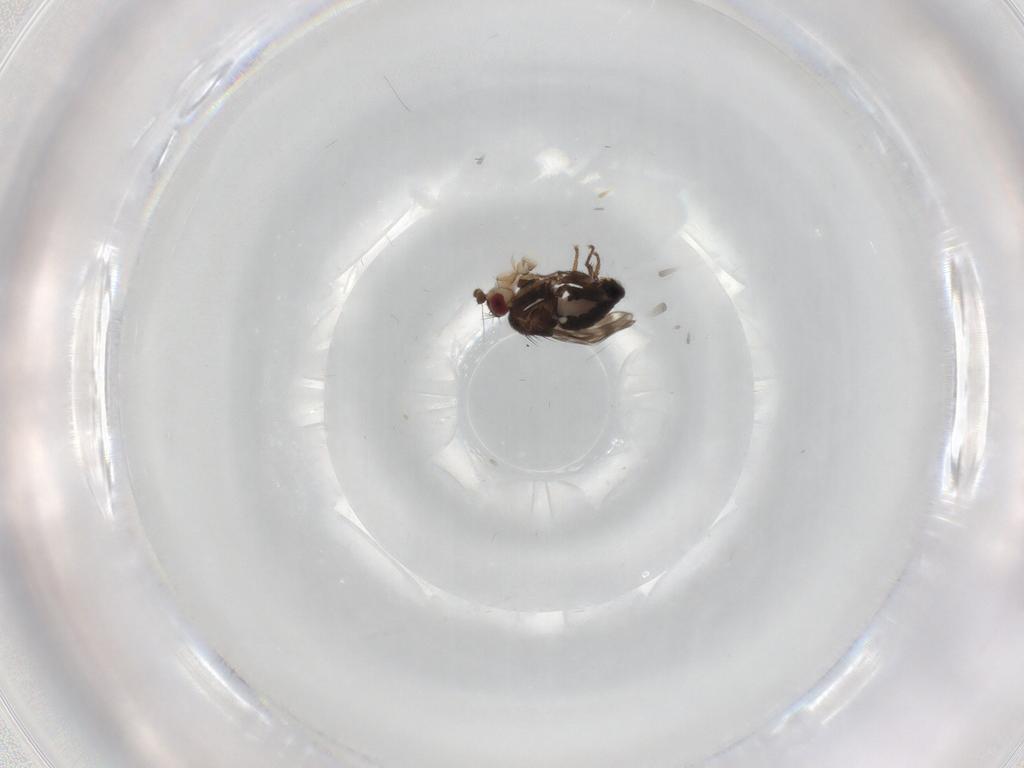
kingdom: Animalia
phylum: Arthropoda
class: Insecta
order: Diptera
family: Sphaeroceridae
